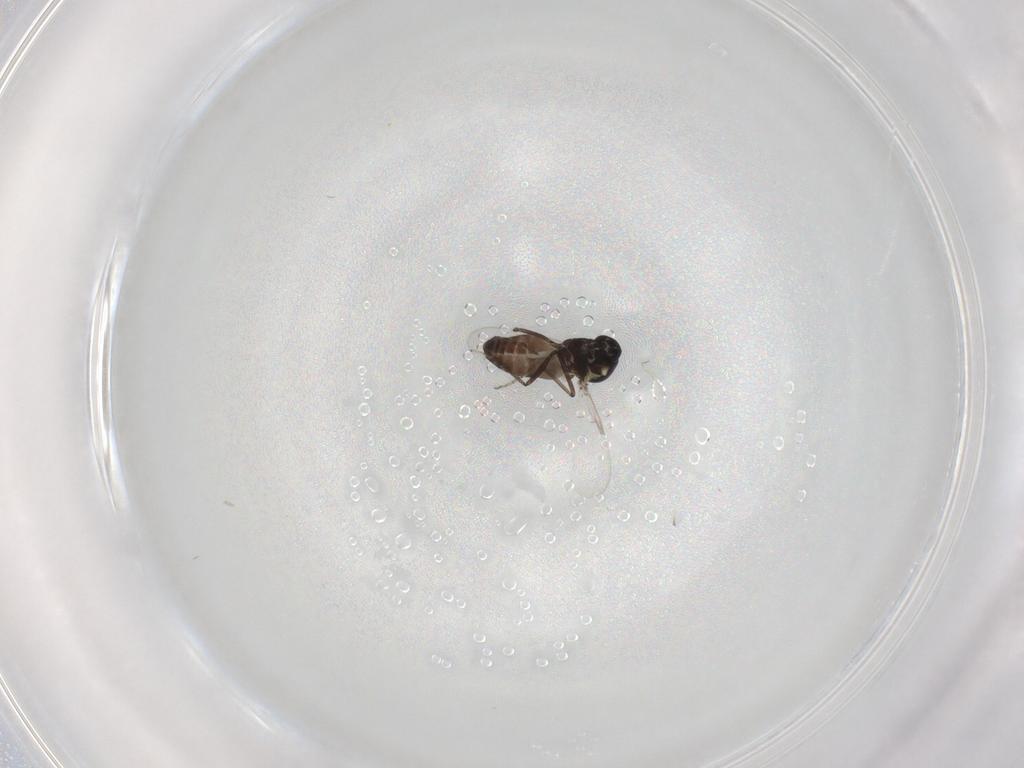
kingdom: Animalia
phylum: Arthropoda
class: Insecta
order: Diptera
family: Ceratopogonidae
